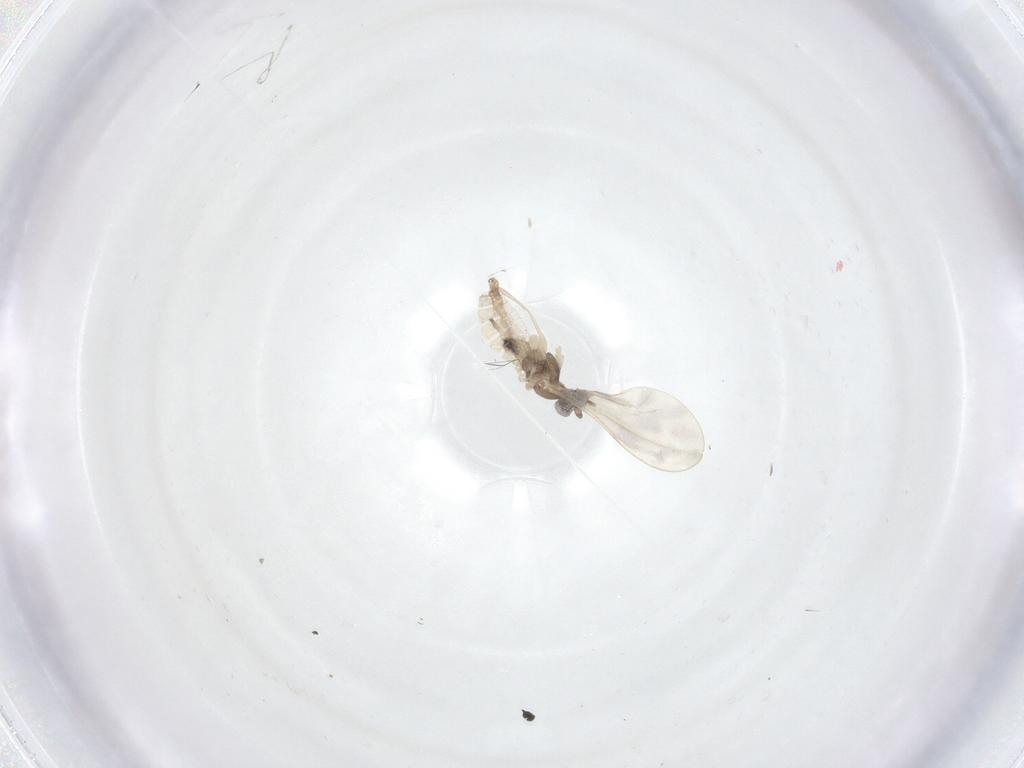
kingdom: Animalia
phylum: Arthropoda
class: Insecta
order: Diptera
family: Cecidomyiidae
